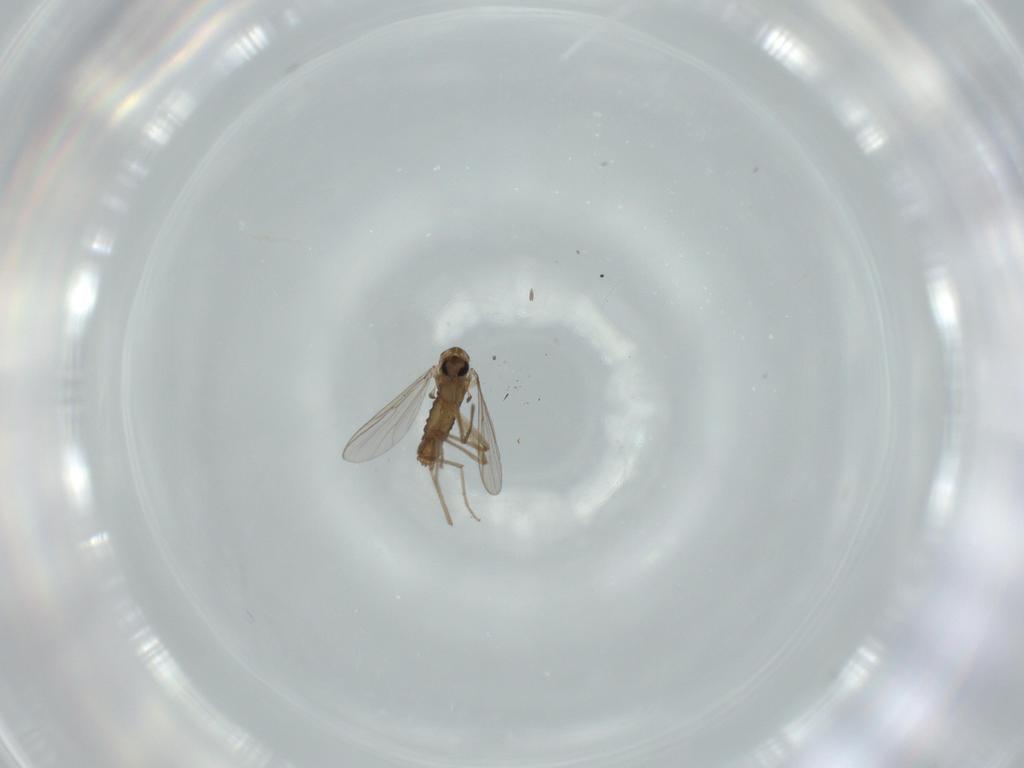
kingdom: Animalia
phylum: Arthropoda
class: Insecta
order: Diptera
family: Chironomidae
